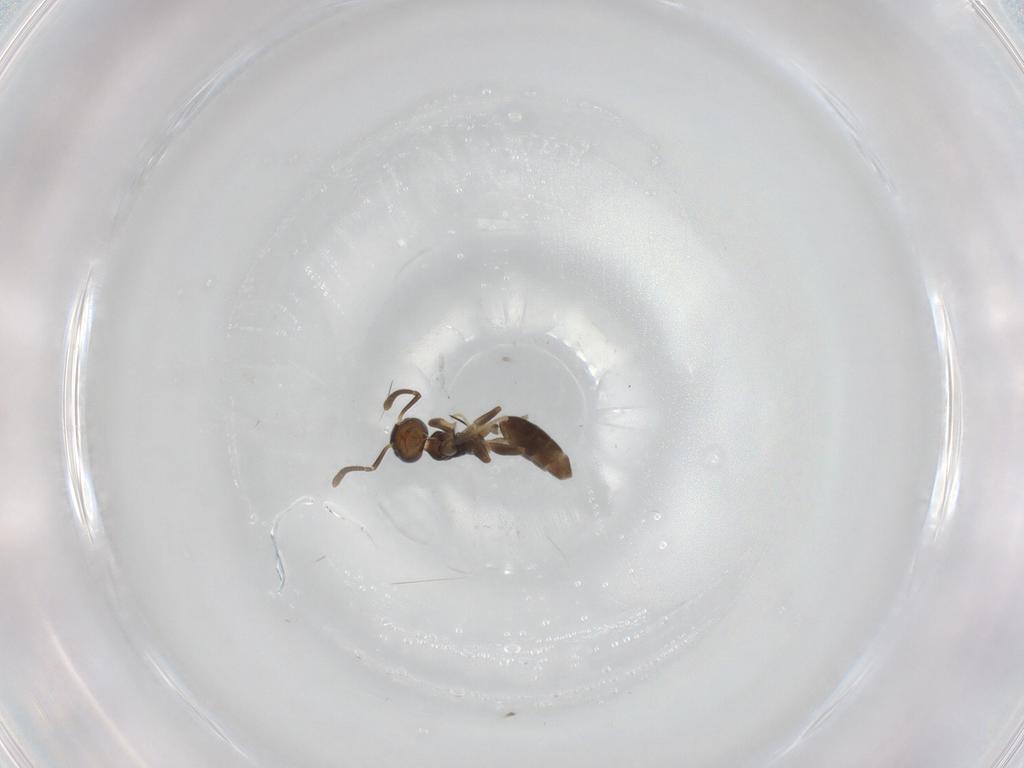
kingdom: Animalia
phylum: Arthropoda
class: Insecta
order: Hymenoptera
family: Formicidae
